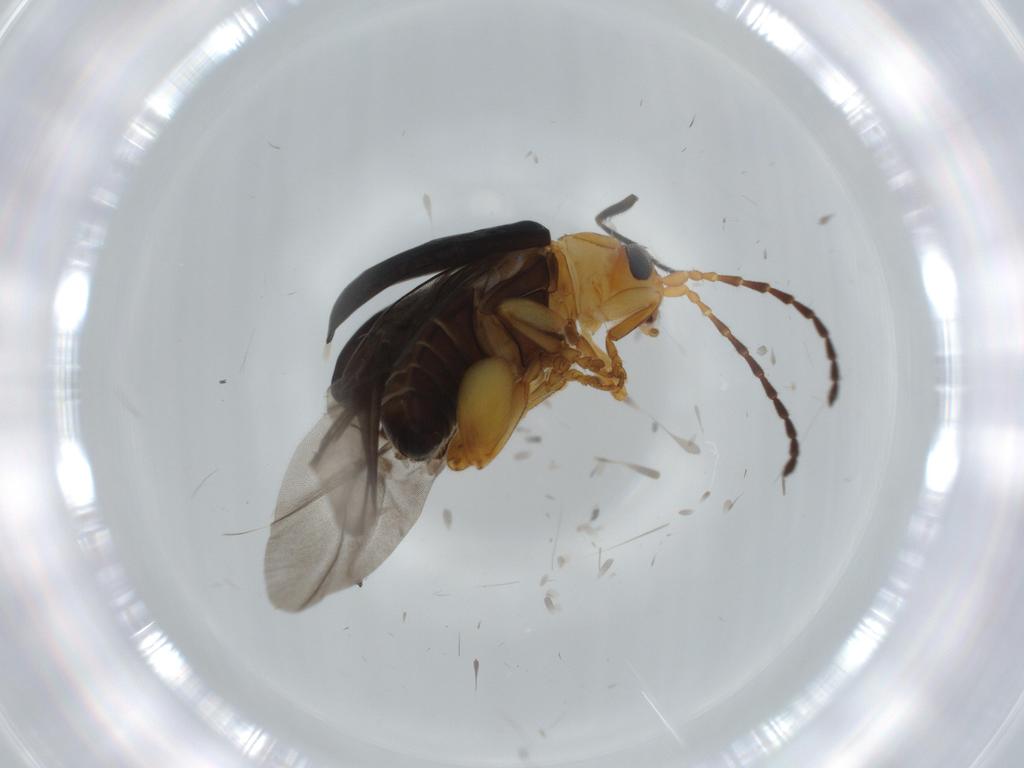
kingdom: Animalia
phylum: Arthropoda
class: Insecta
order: Coleoptera
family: Chrysomelidae
